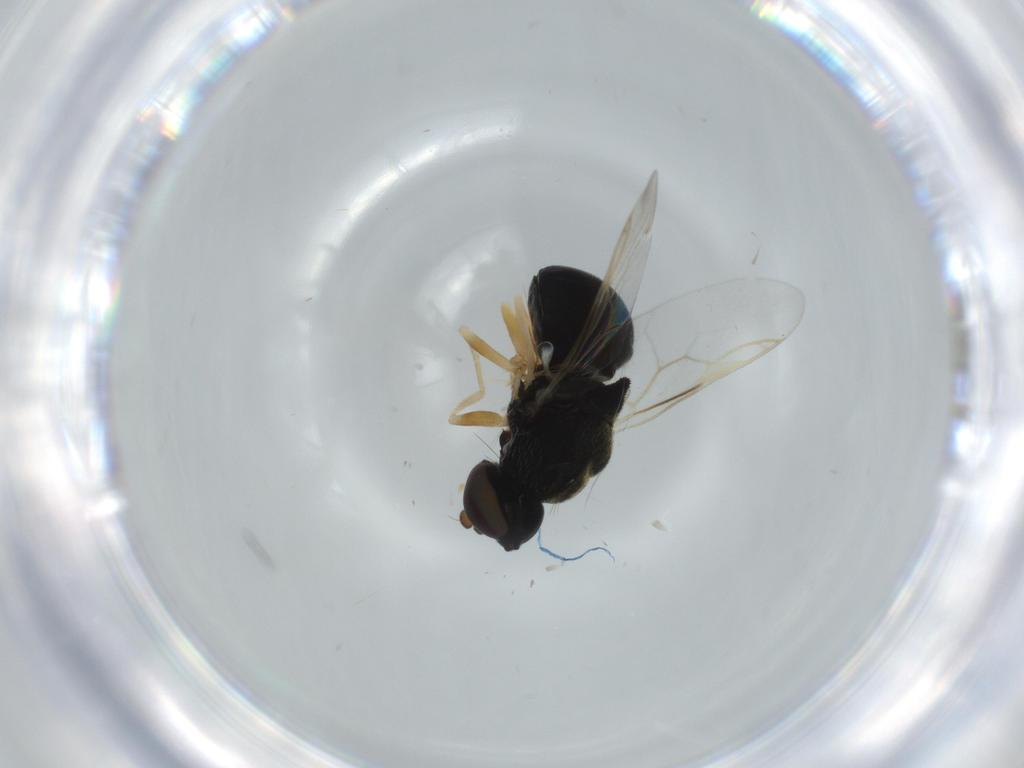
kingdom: Animalia
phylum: Arthropoda
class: Insecta
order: Diptera
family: Stratiomyidae
